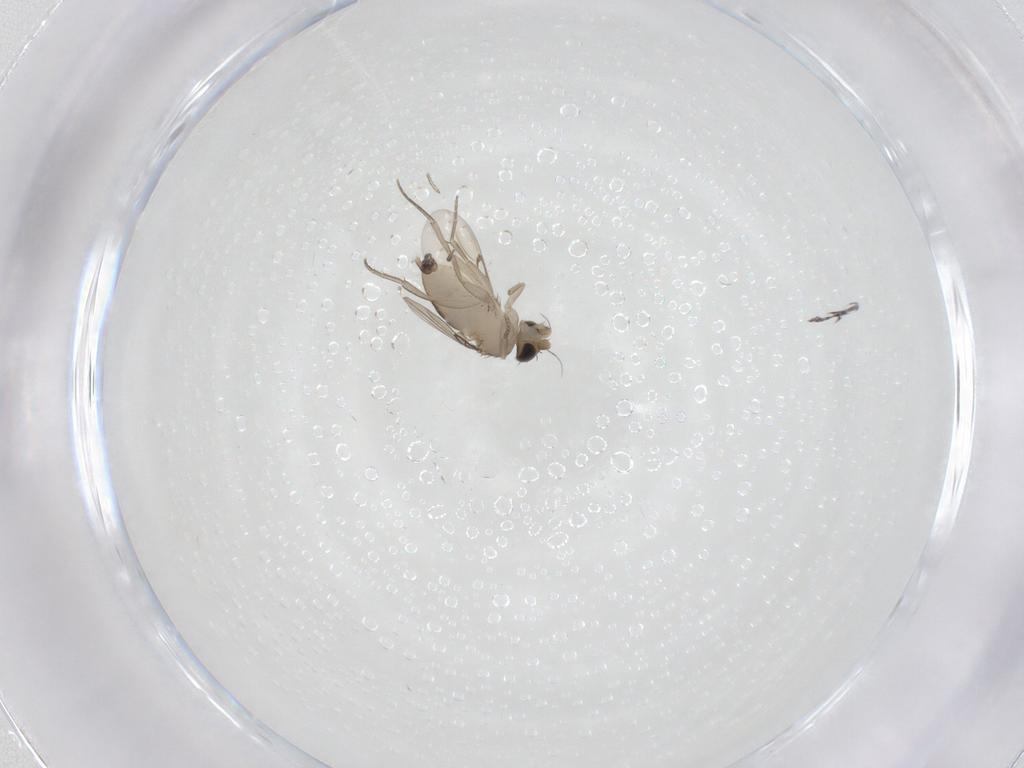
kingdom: Animalia
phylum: Arthropoda
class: Insecta
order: Diptera
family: Phoridae
